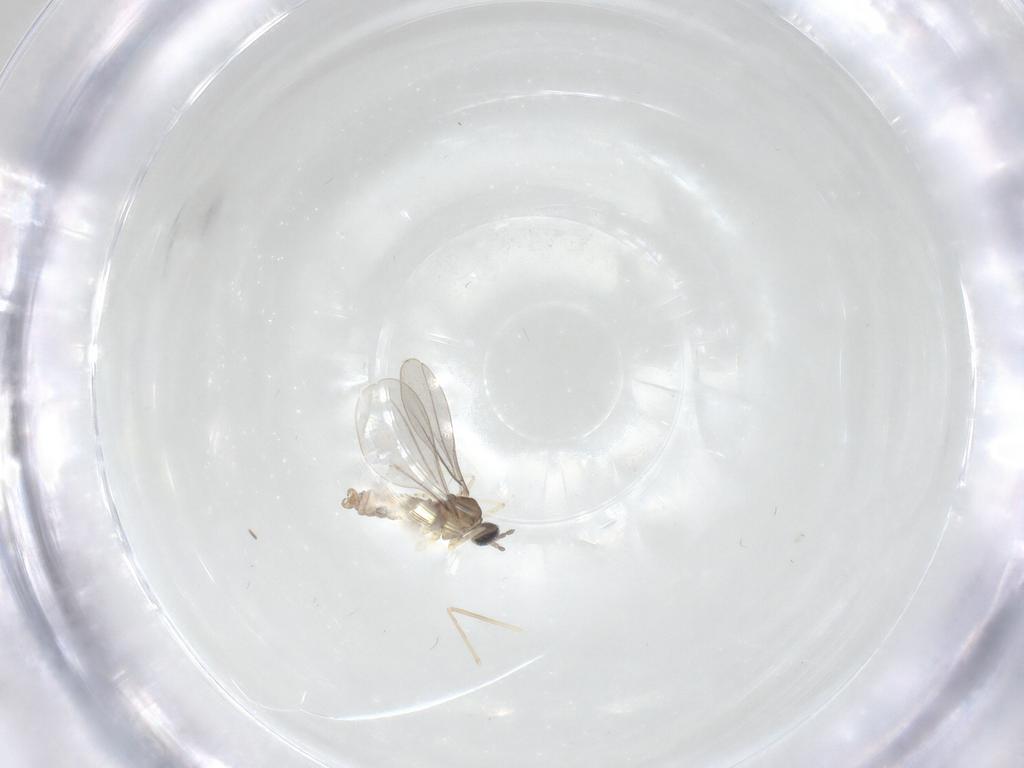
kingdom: Animalia
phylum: Arthropoda
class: Insecta
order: Diptera
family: Cecidomyiidae
